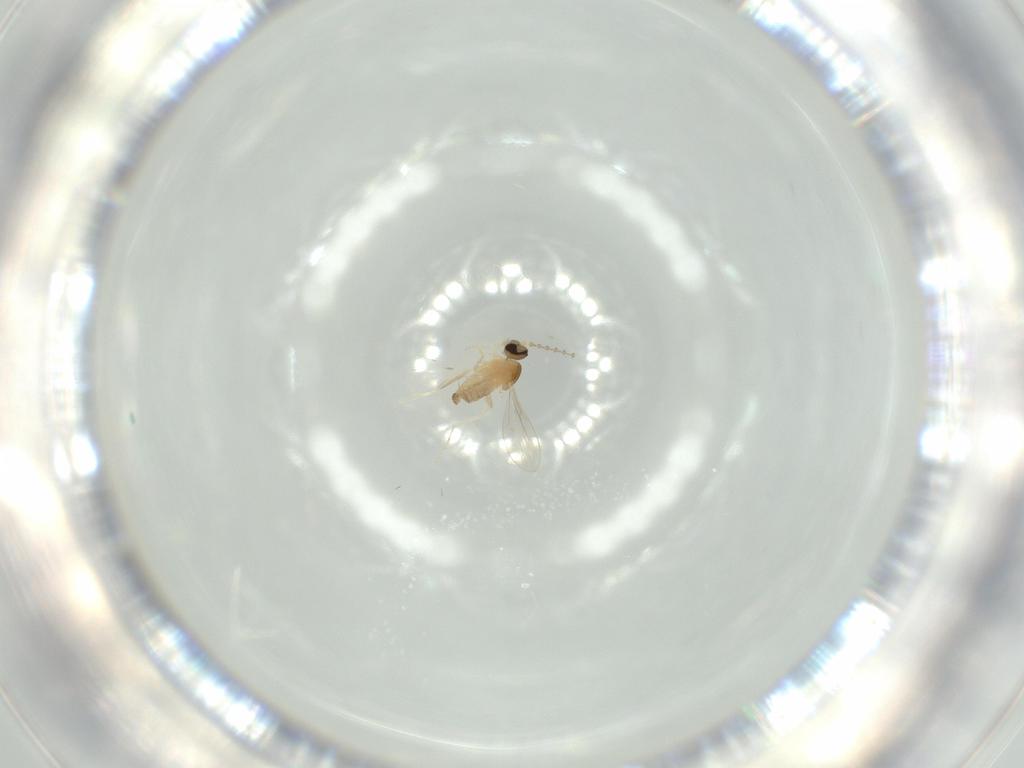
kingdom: Animalia
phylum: Arthropoda
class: Insecta
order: Diptera
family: Cecidomyiidae
